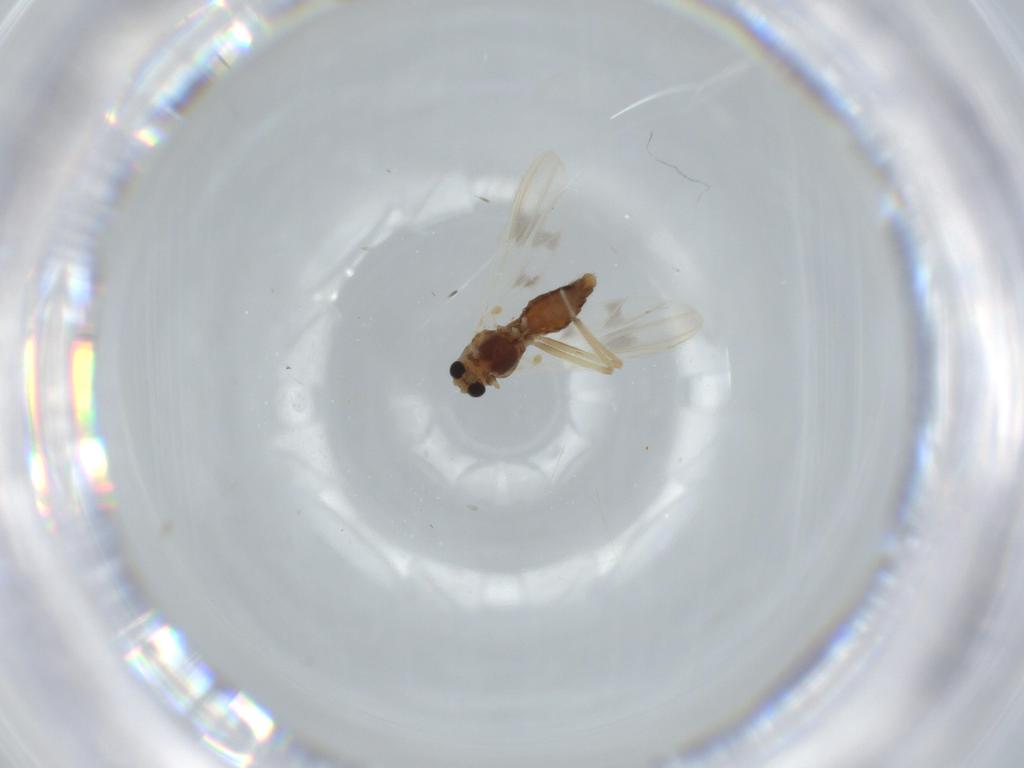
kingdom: Animalia
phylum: Arthropoda
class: Insecta
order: Diptera
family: Chironomidae
